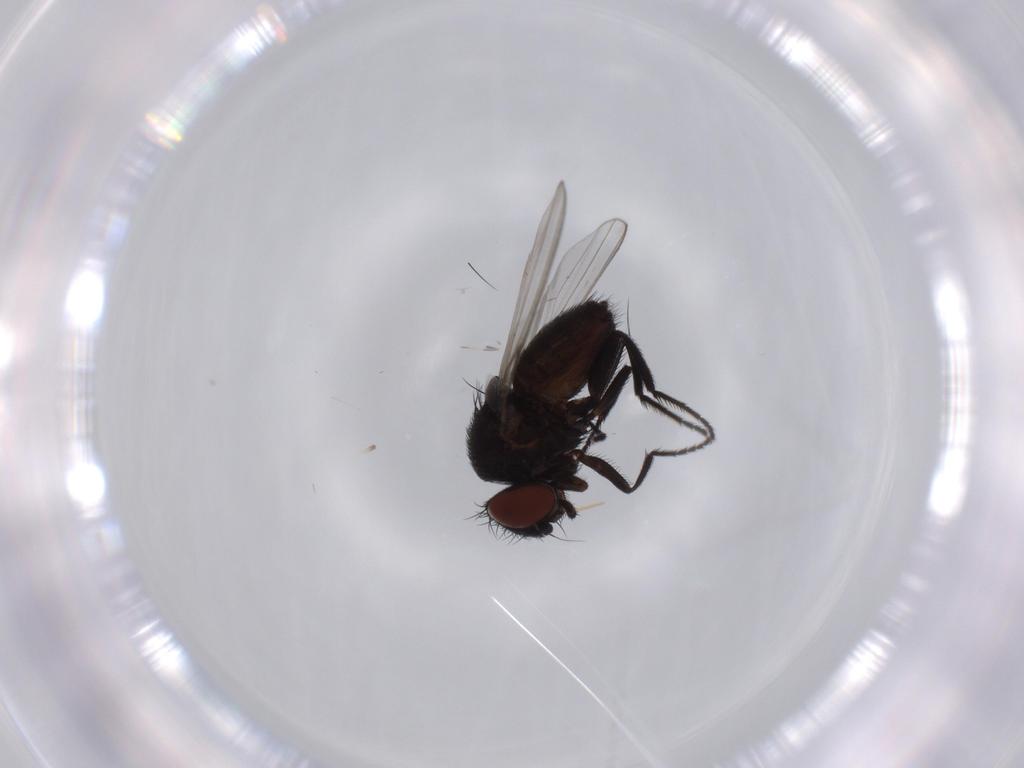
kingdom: Animalia
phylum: Arthropoda
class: Insecta
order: Diptera
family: Milichiidae
